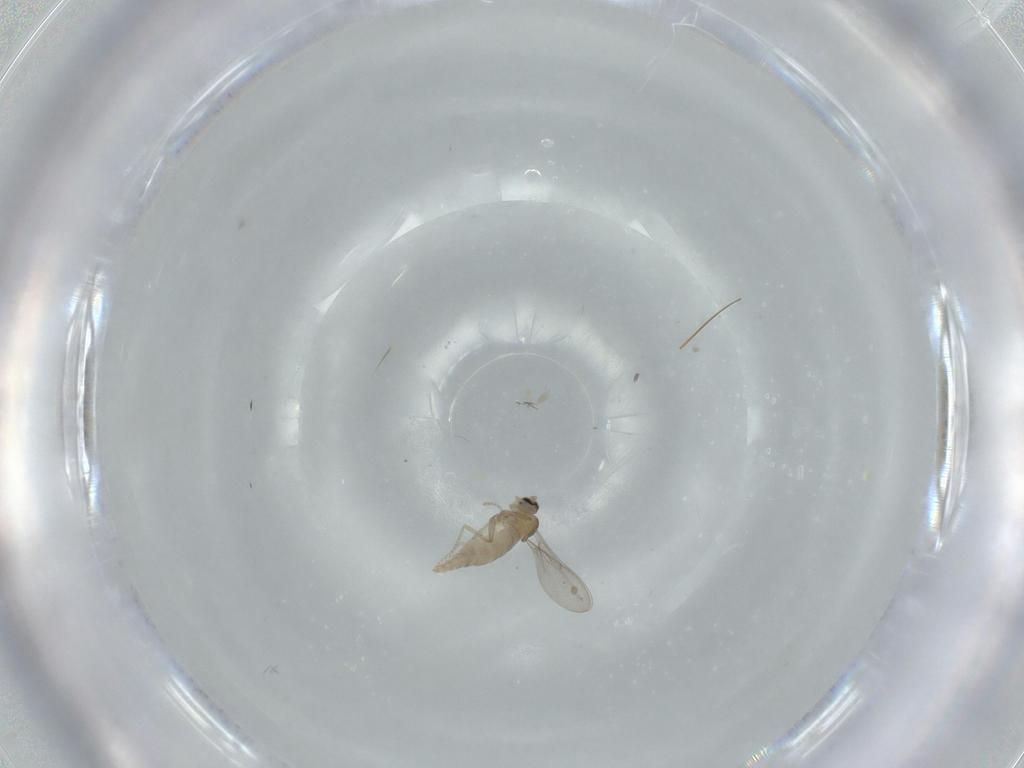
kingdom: Animalia
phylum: Arthropoda
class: Insecta
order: Diptera
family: Cecidomyiidae
